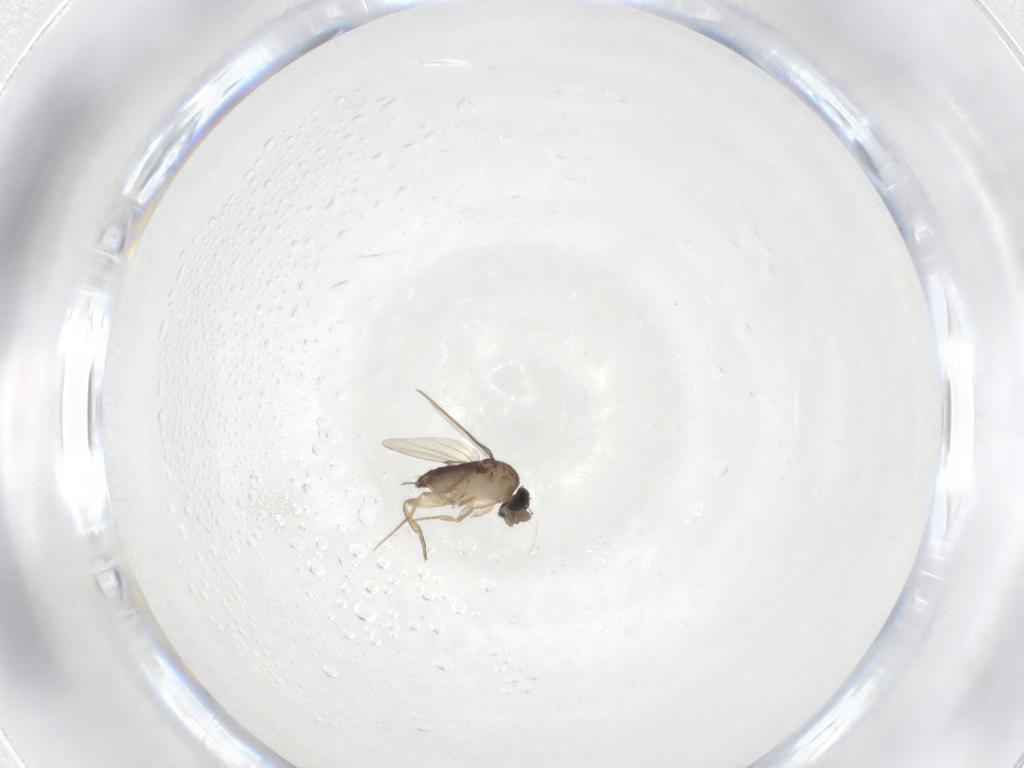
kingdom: Animalia
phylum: Arthropoda
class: Insecta
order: Diptera
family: Phoridae
